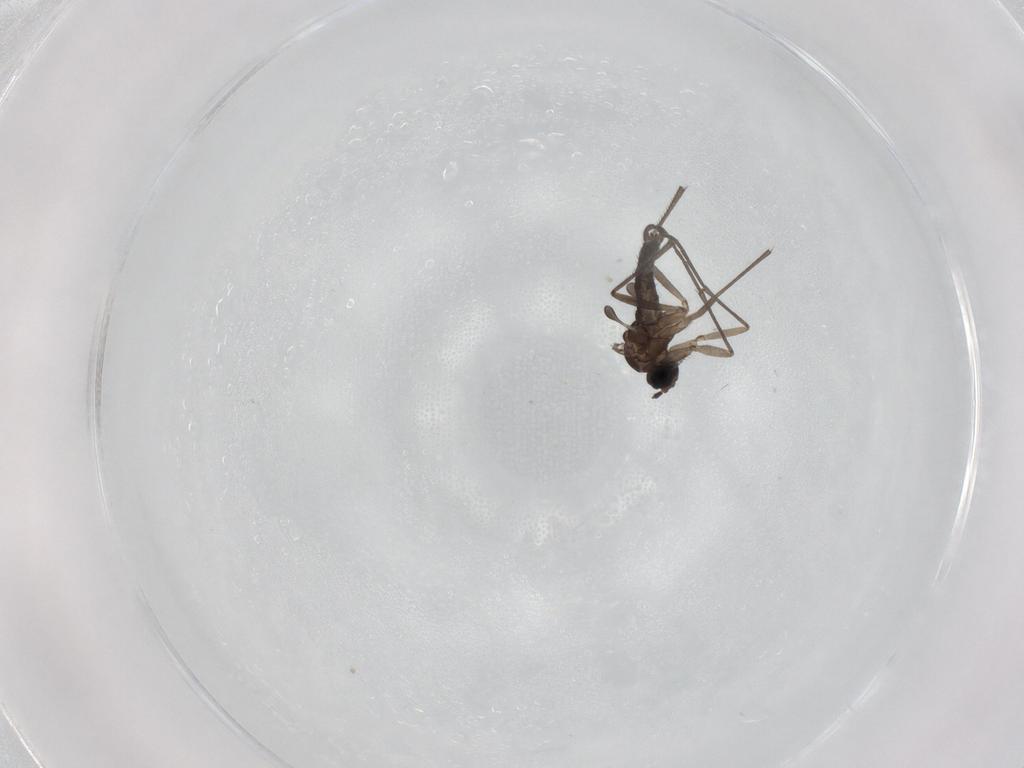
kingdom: Animalia
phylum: Arthropoda
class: Insecta
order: Diptera
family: Sciaridae
